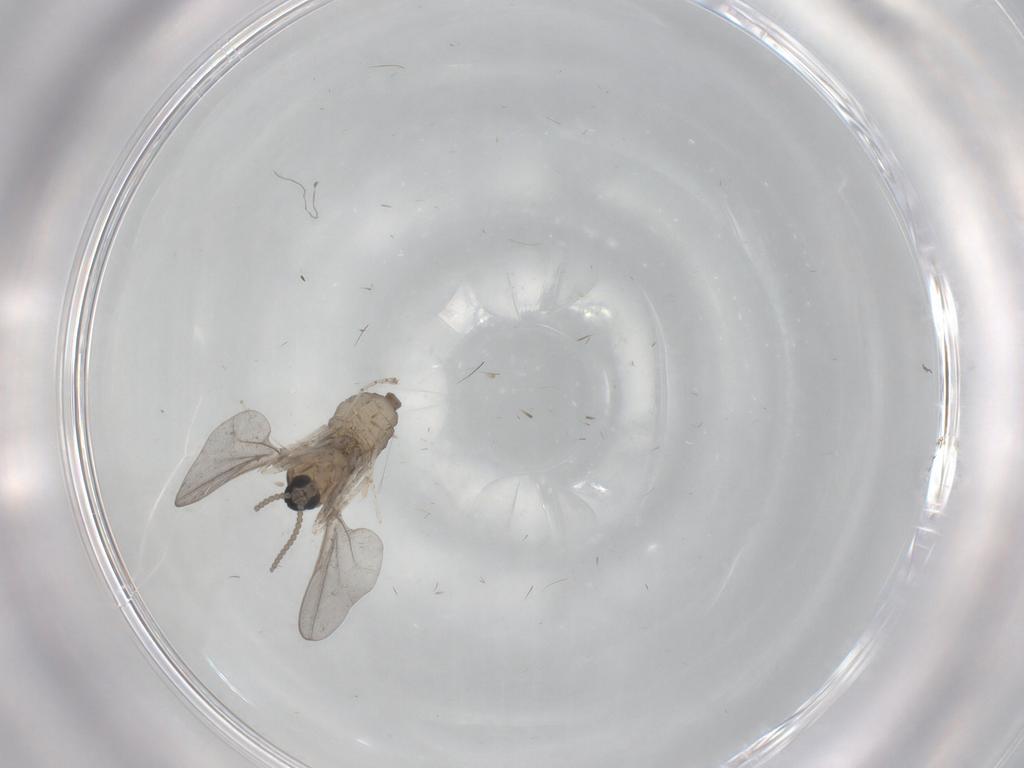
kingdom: Animalia
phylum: Arthropoda
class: Insecta
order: Diptera
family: Cecidomyiidae
